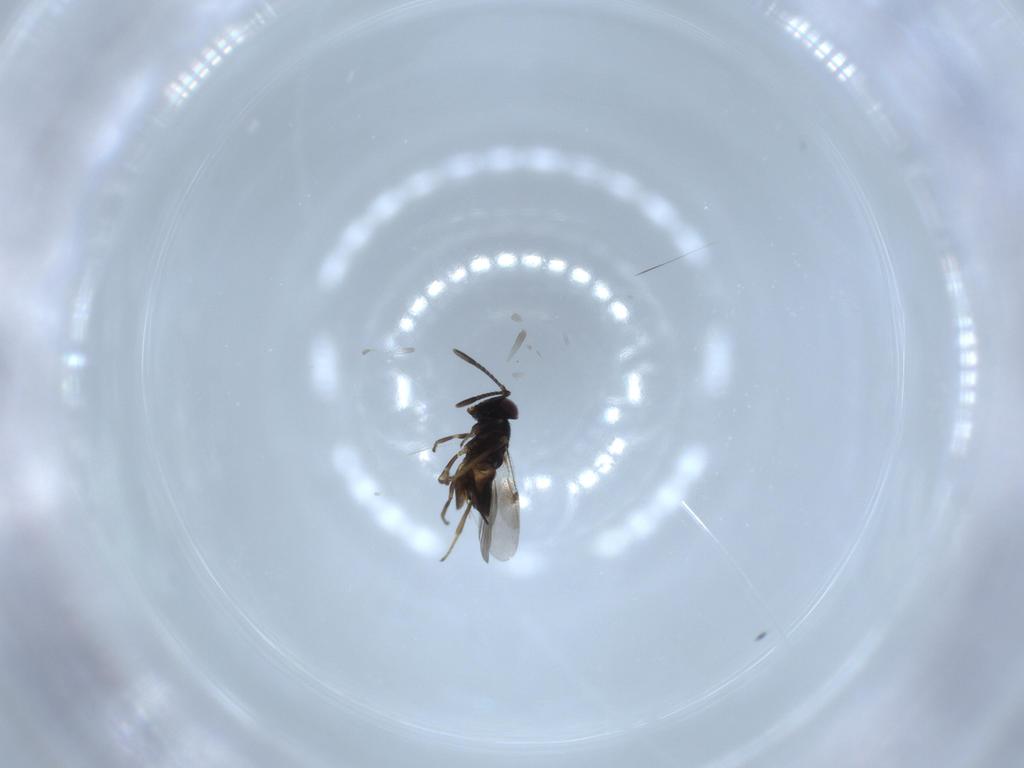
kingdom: Animalia
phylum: Arthropoda
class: Insecta
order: Hymenoptera
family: Encyrtidae
